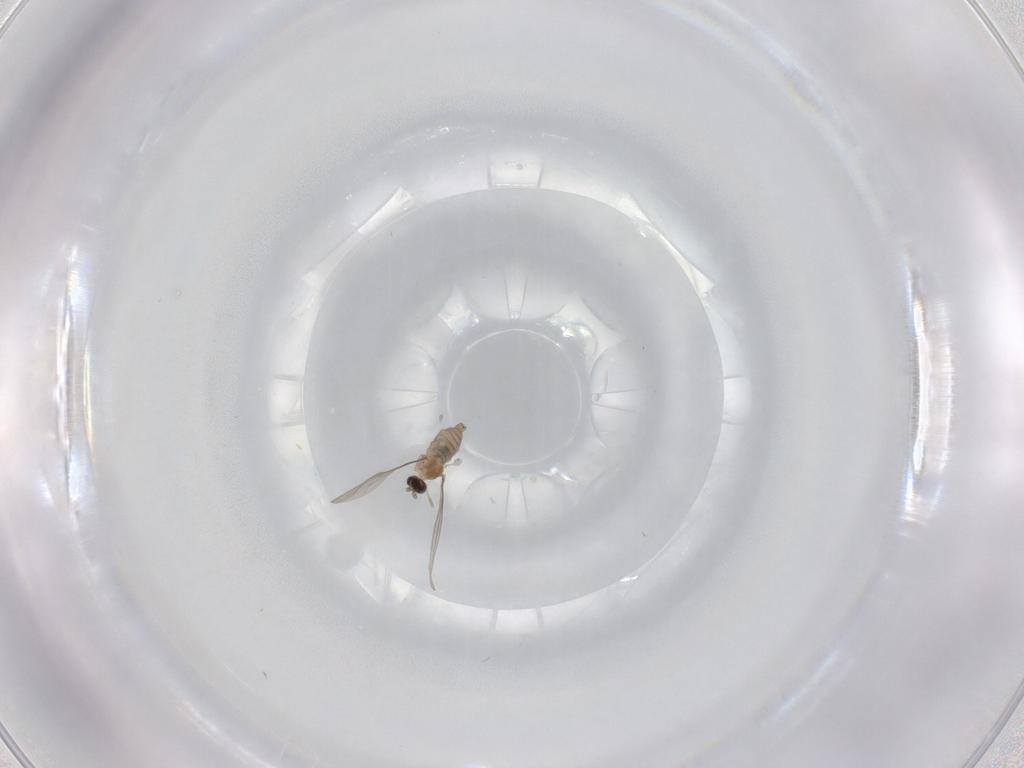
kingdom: Animalia
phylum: Arthropoda
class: Insecta
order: Diptera
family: Cecidomyiidae
